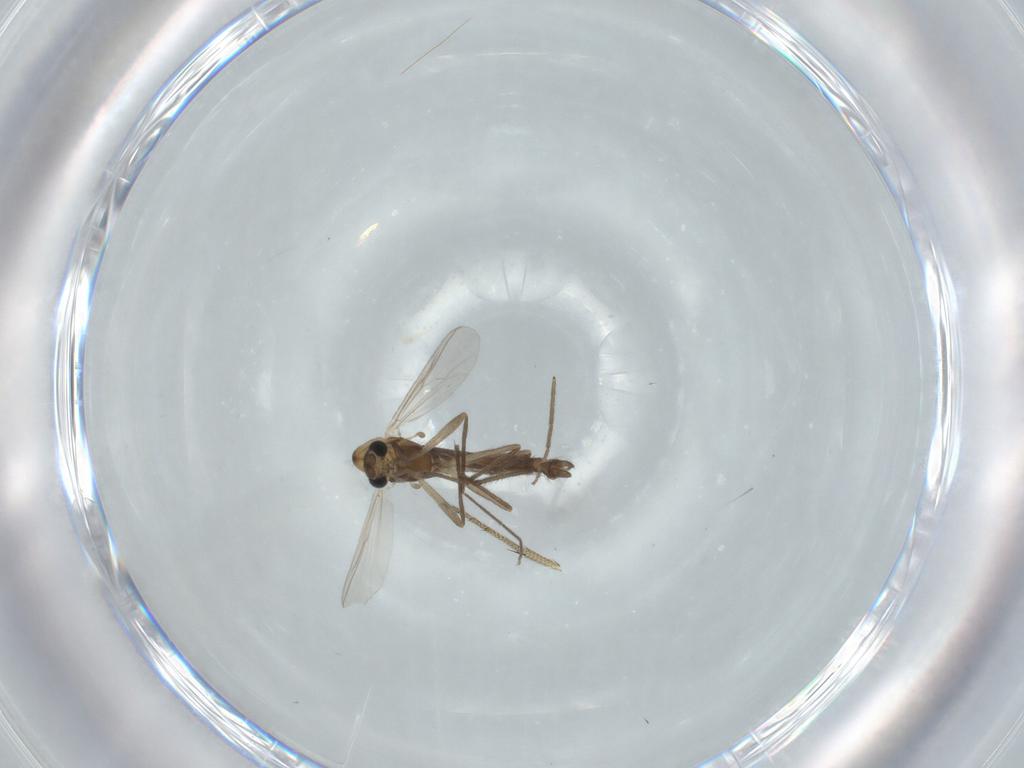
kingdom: Animalia
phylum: Arthropoda
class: Insecta
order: Diptera
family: Chironomidae
